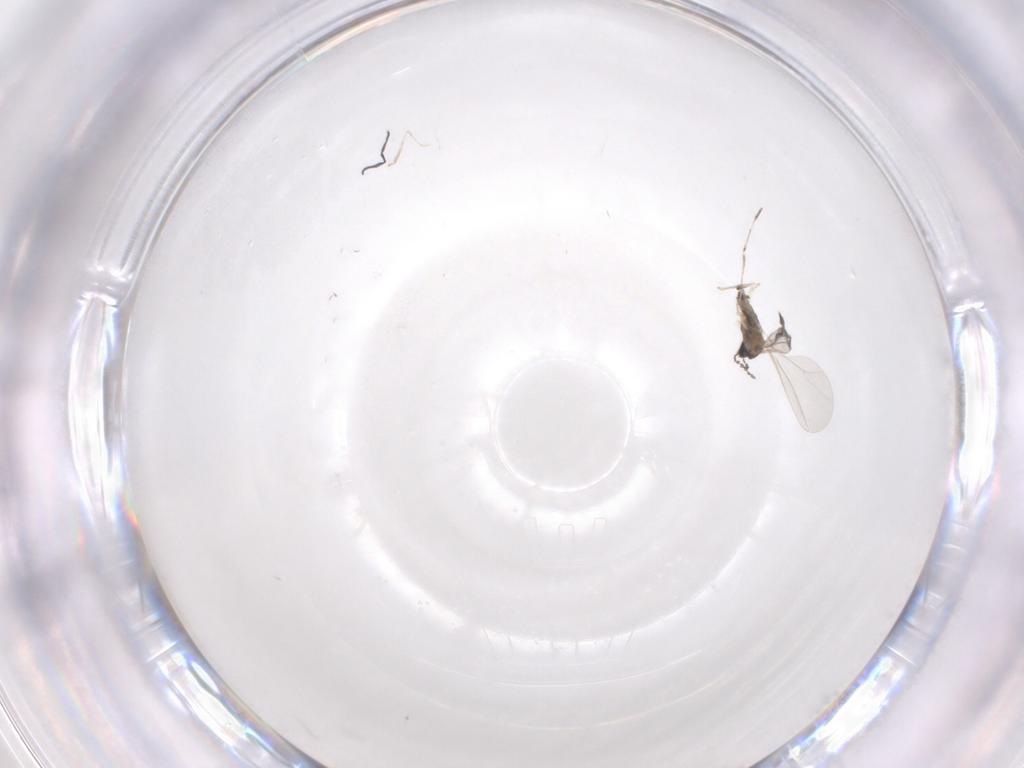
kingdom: Animalia
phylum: Arthropoda
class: Insecta
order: Diptera
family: Cecidomyiidae
